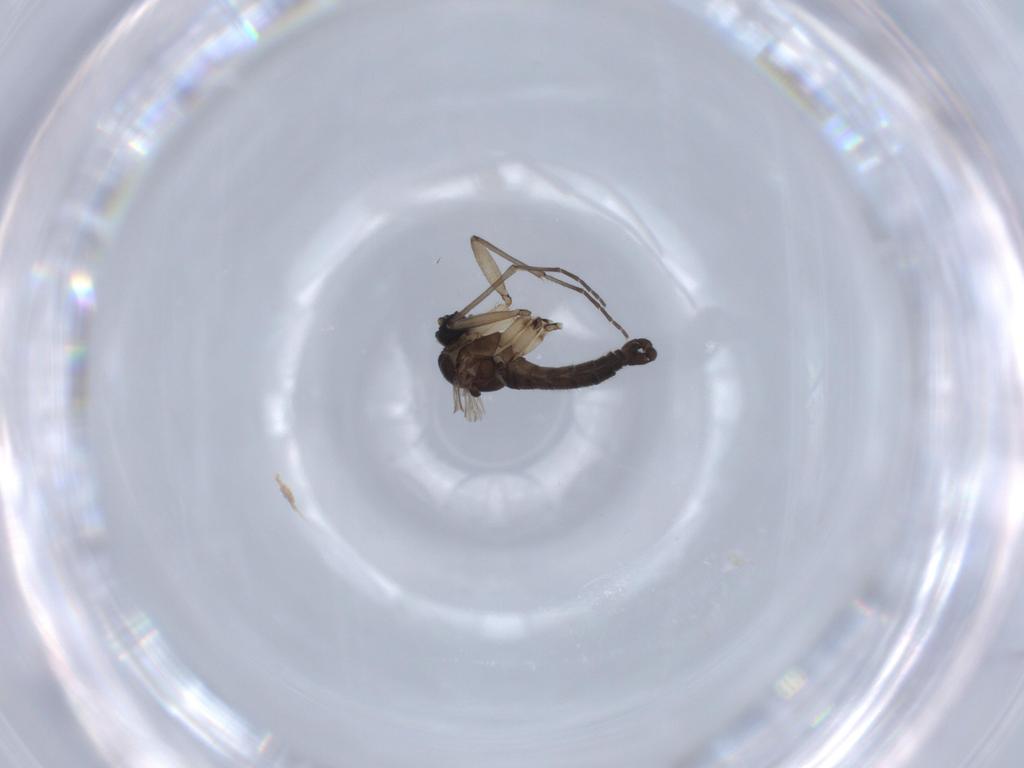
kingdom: Animalia
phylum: Arthropoda
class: Insecta
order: Diptera
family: Sciaridae
